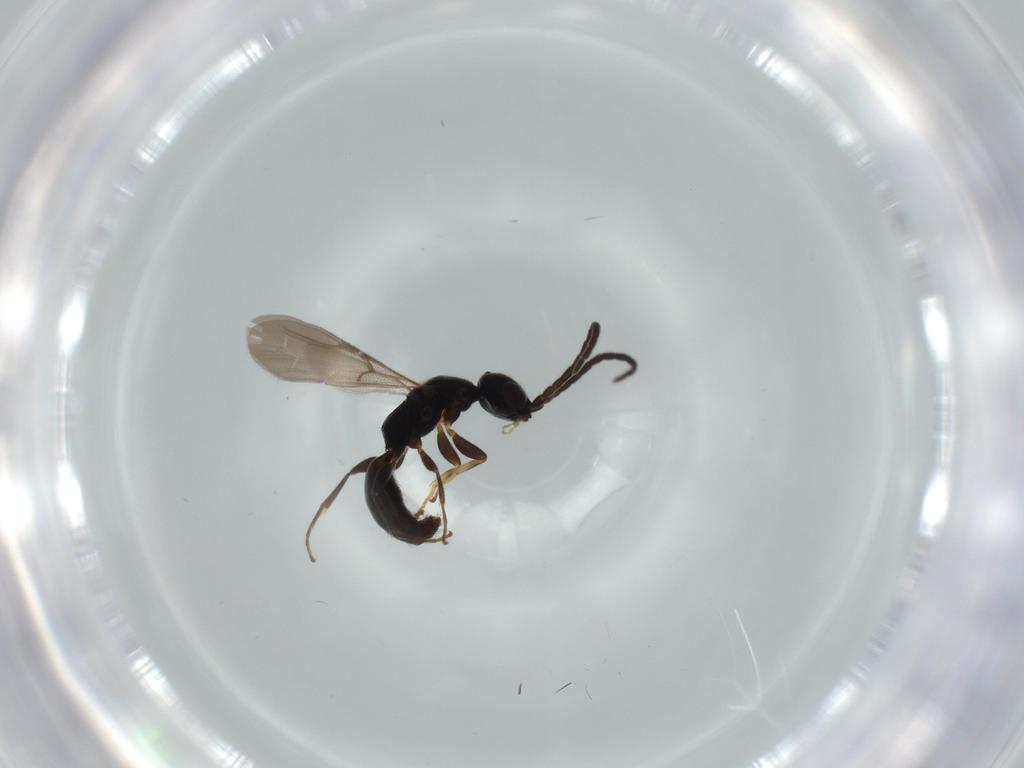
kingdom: Animalia
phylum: Arthropoda
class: Insecta
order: Hymenoptera
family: Bethylidae
